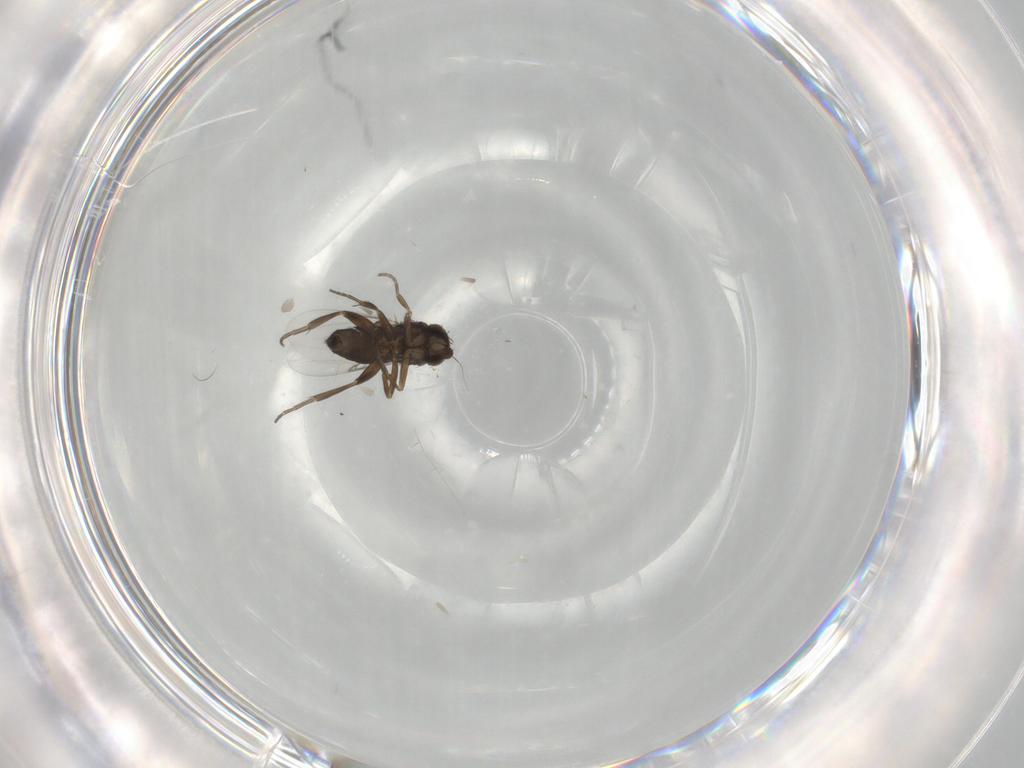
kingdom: Animalia
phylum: Arthropoda
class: Insecta
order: Diptera
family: Phoridae
